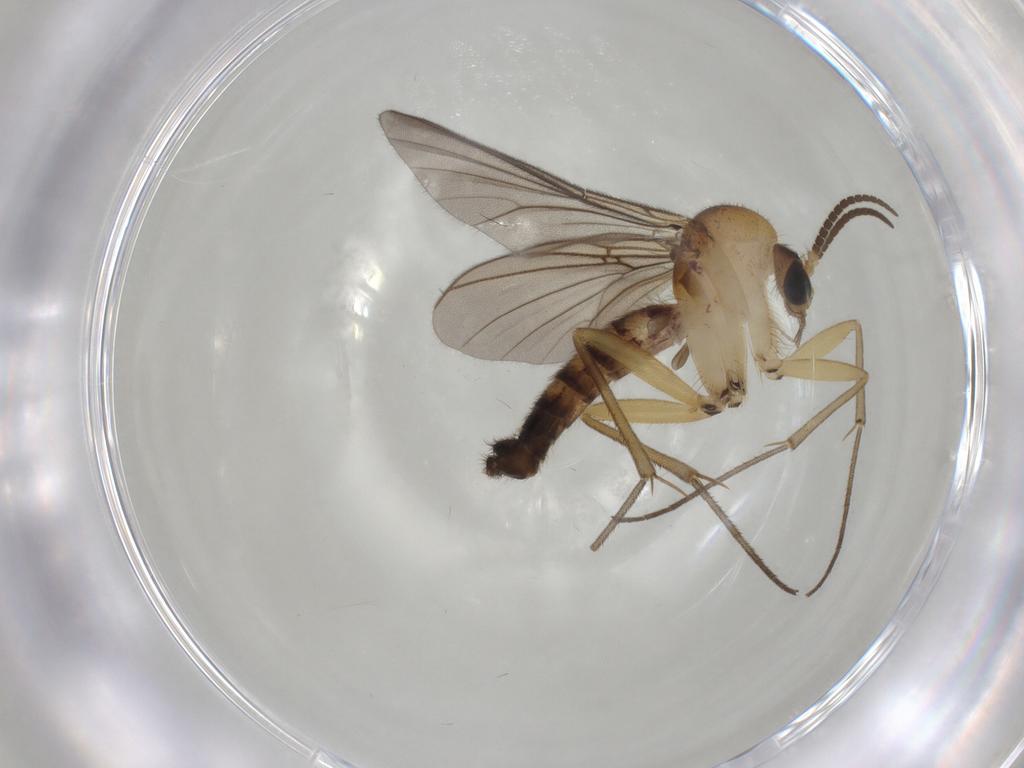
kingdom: Animalia
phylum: Arthropoda
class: Insecta
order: Diptera
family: Mycetophilidae
